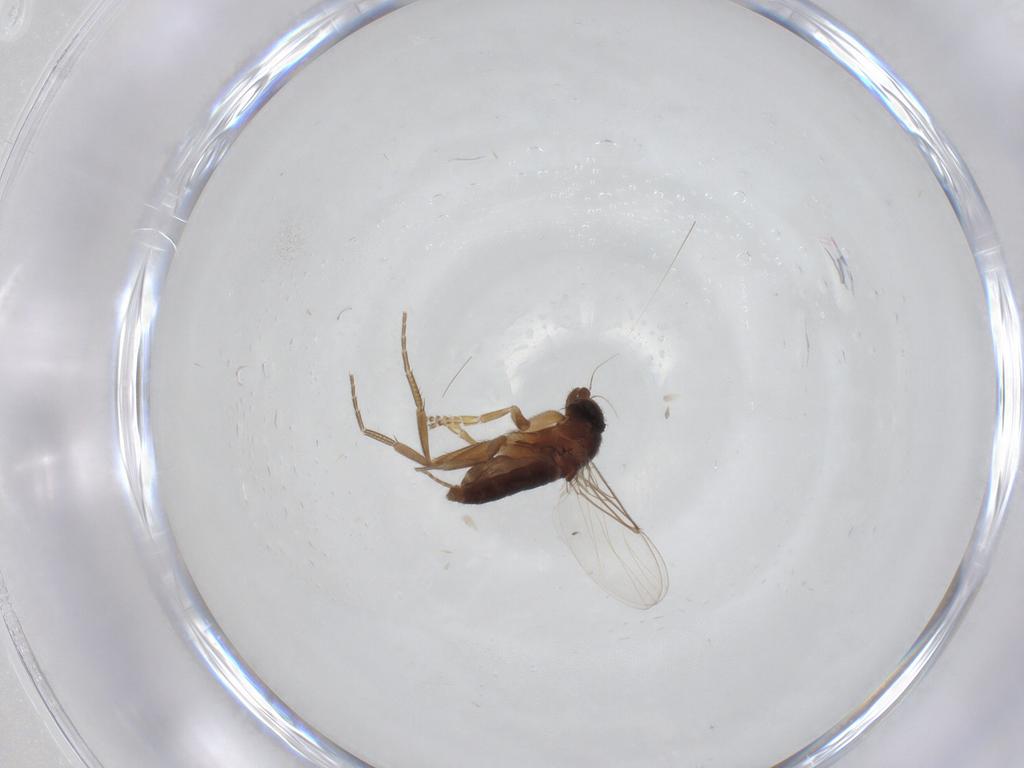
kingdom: Animalia
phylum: Arthropoda
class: Insecta
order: Diptera
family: Phoridae
